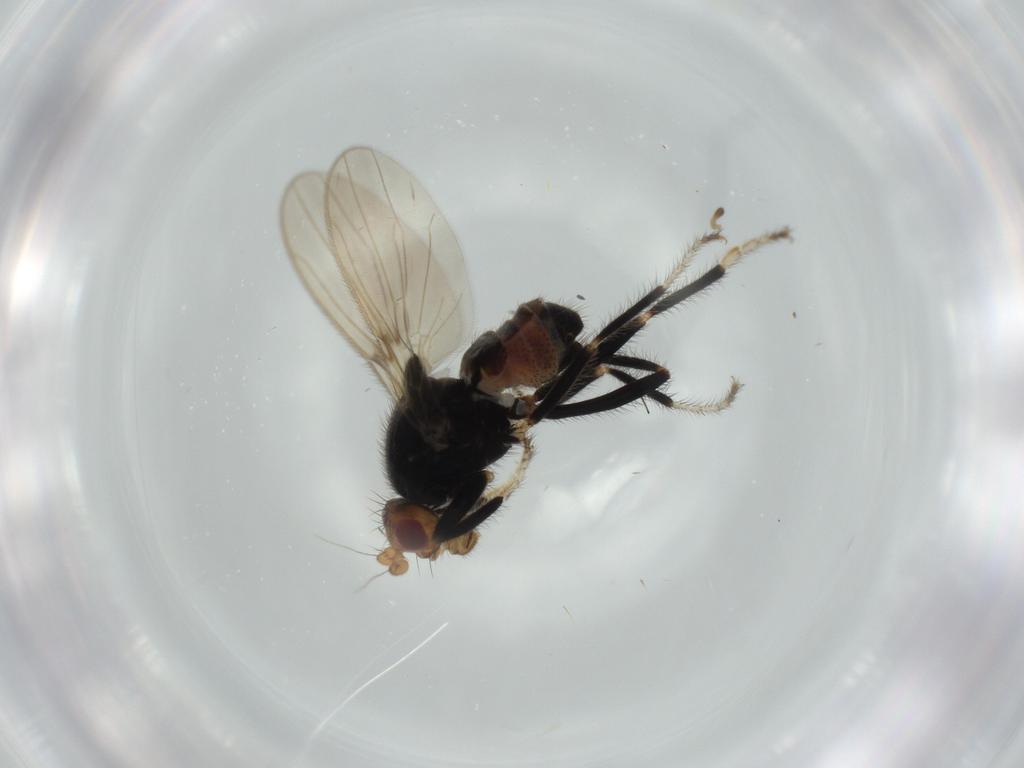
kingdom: Animalia
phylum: Arthropoda
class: Insecta
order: Diptera
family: Sphaeroceridae
